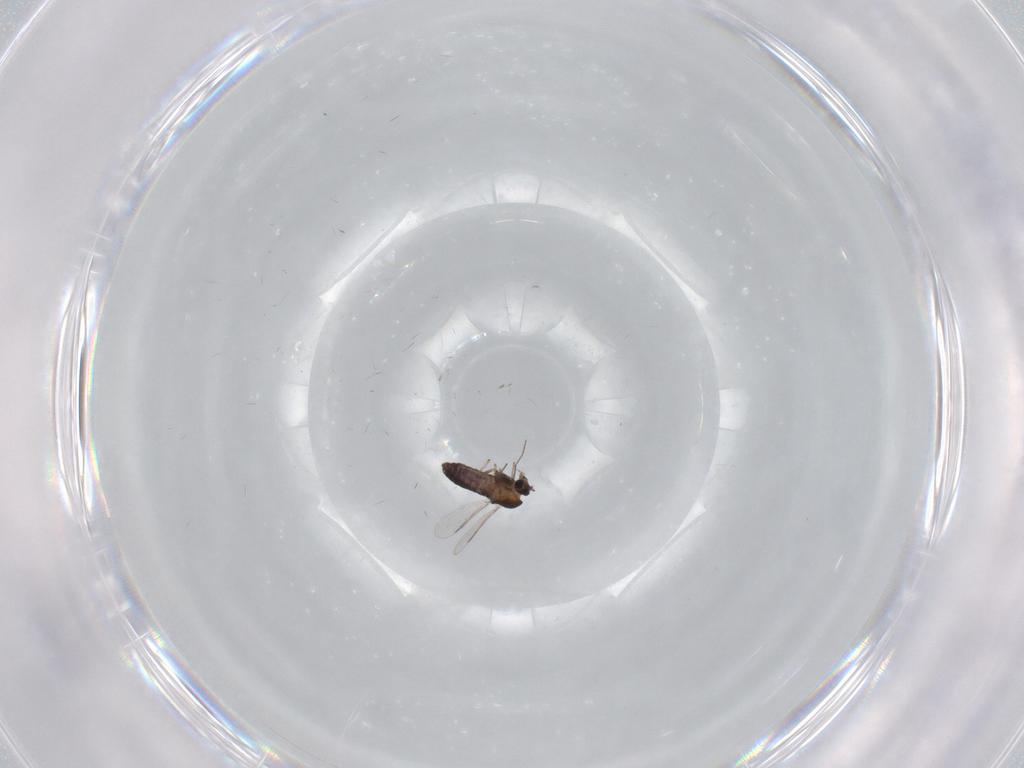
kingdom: Animalia
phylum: Arthropoda
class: Insecta
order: Diptera
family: Chironomidae
